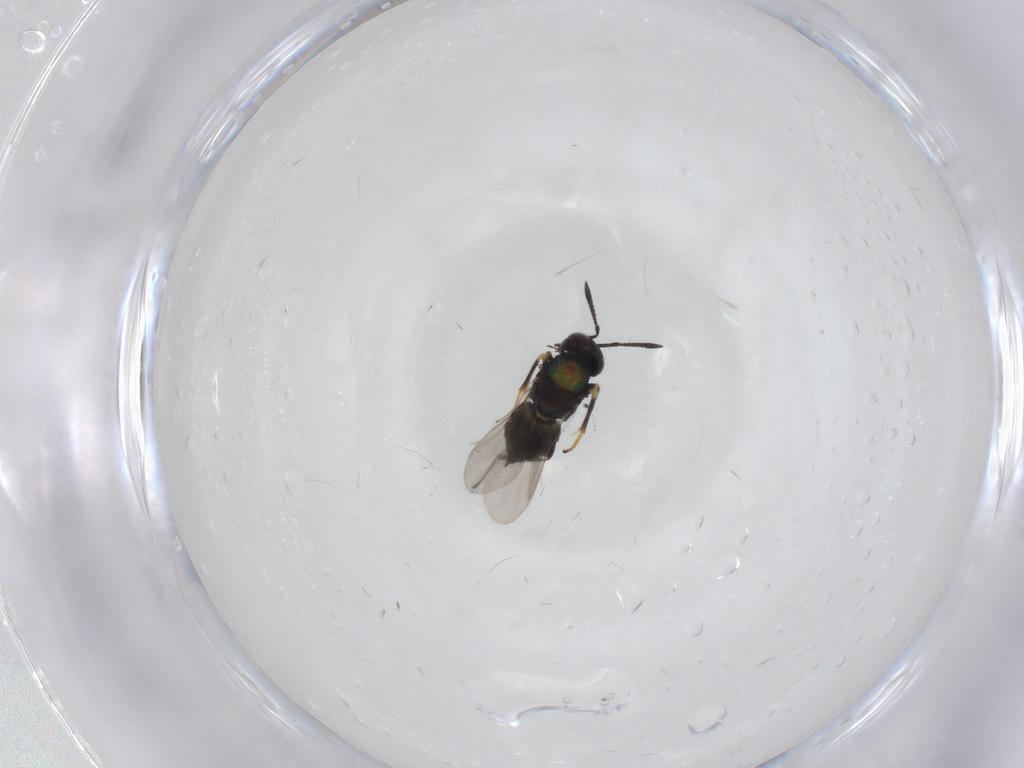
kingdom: Animalia
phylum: Arthropoda
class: Insecta
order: Hymenoptera
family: Encyrtidae
